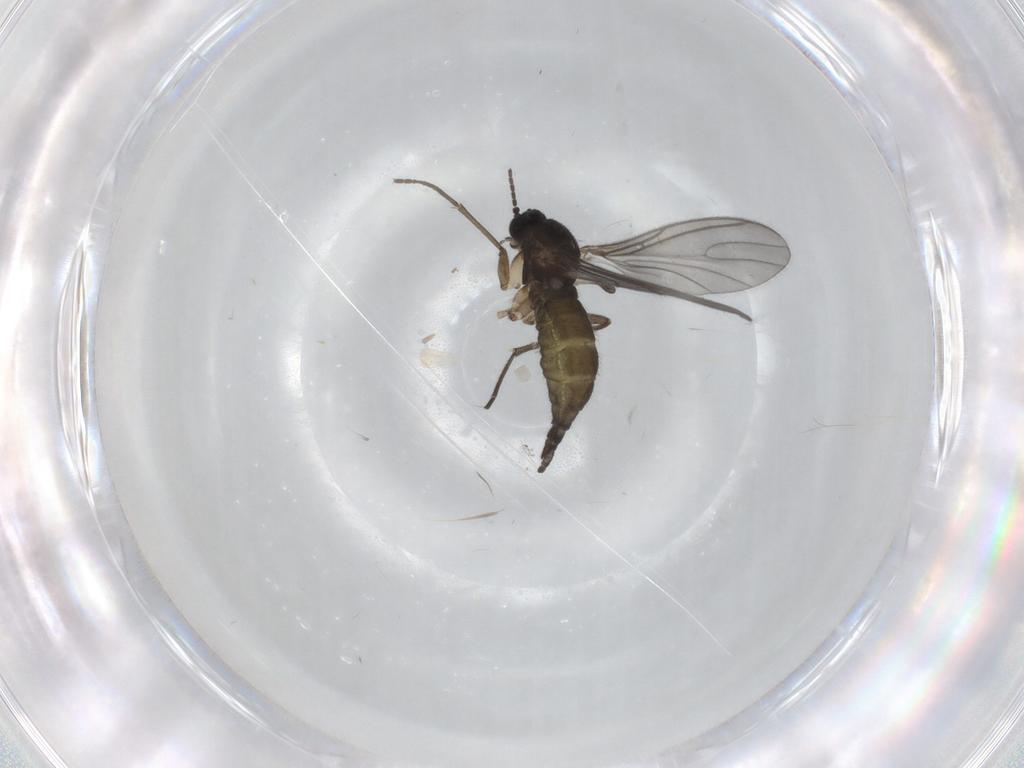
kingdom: Animalia
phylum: Arthropoda
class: Insecta
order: Diptera
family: Sciaridae
